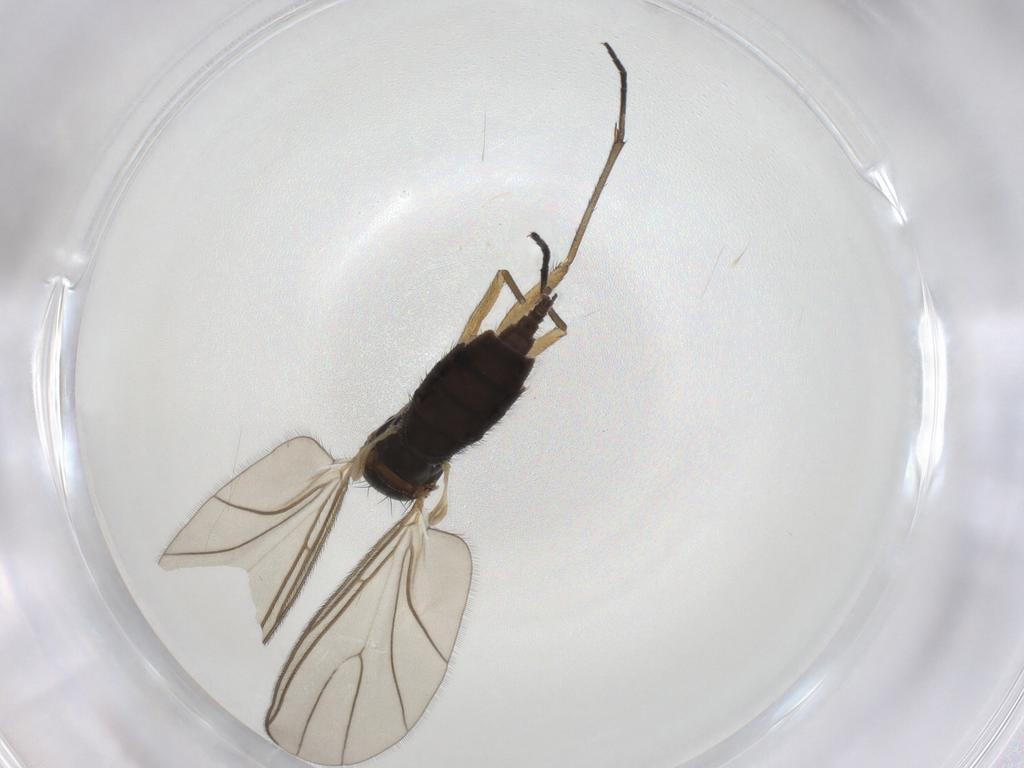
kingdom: Animalia
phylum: Arthropoda
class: Insecta
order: Diptera
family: Sciaridae
